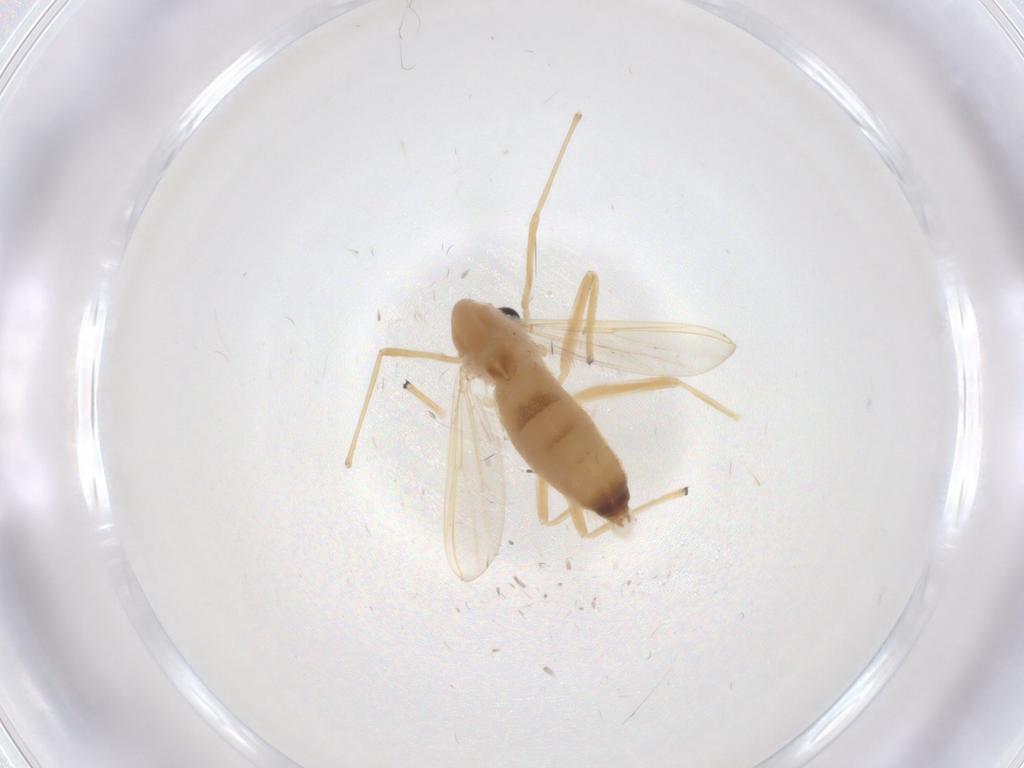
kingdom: Animalia
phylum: Arthropoda
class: Insecta
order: Diptera
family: Chironomidae
